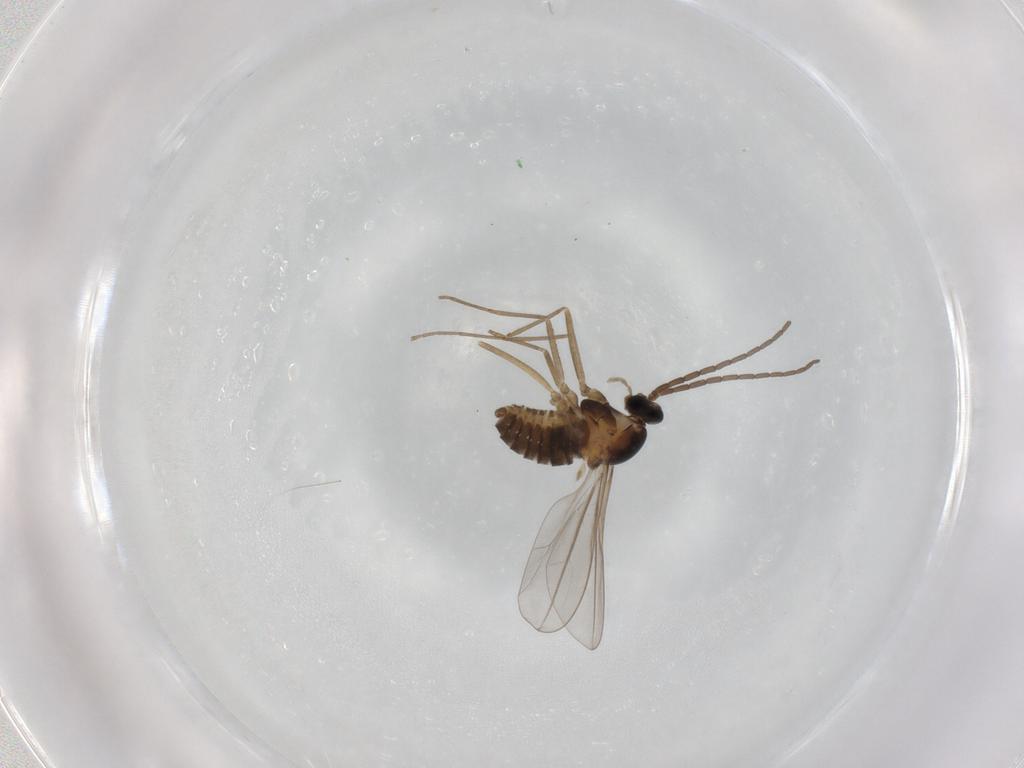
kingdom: Animalia
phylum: Arthropoda
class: Insecta
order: Diptera
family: Cecidomyiidae
